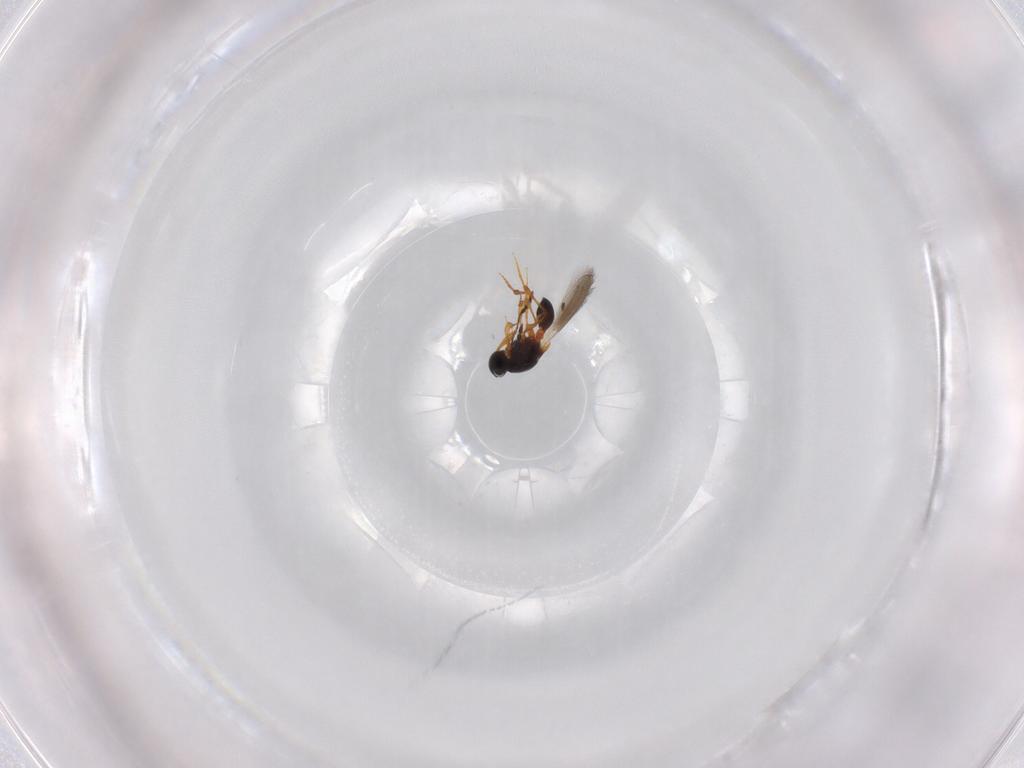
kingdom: Animalia
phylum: Arthropoda
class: Insecta
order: Hymenoptera
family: Platygastridae
